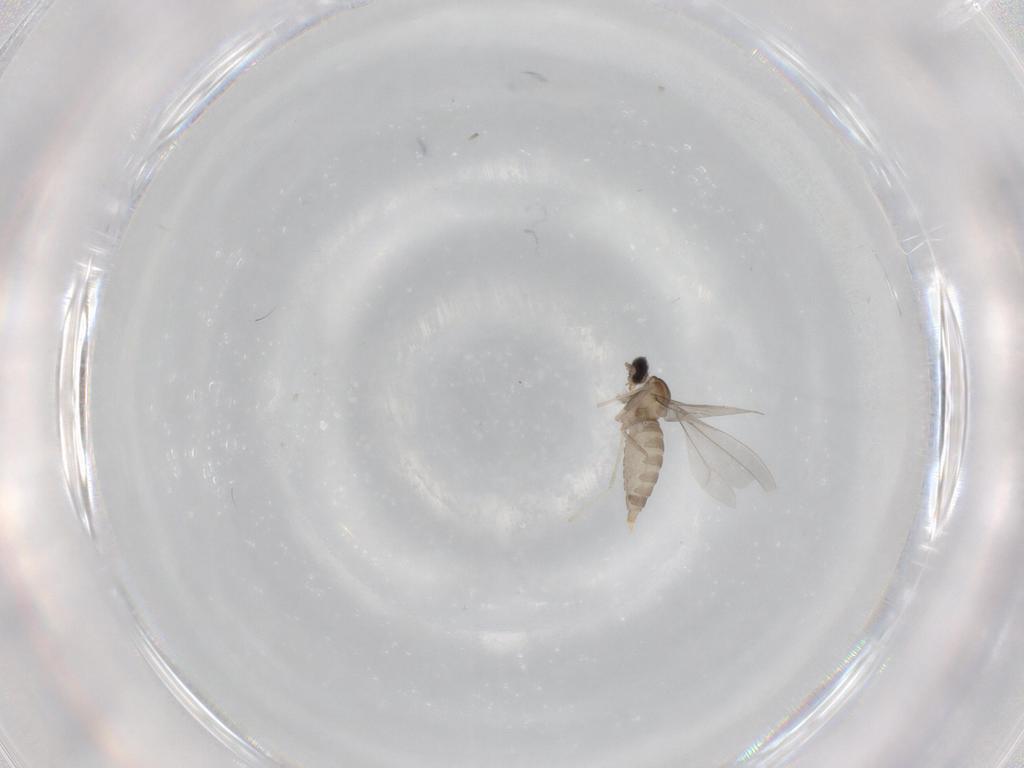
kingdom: Animalia
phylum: Arthropoda
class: Insecta
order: Diptera
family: Cecidomyiidae
